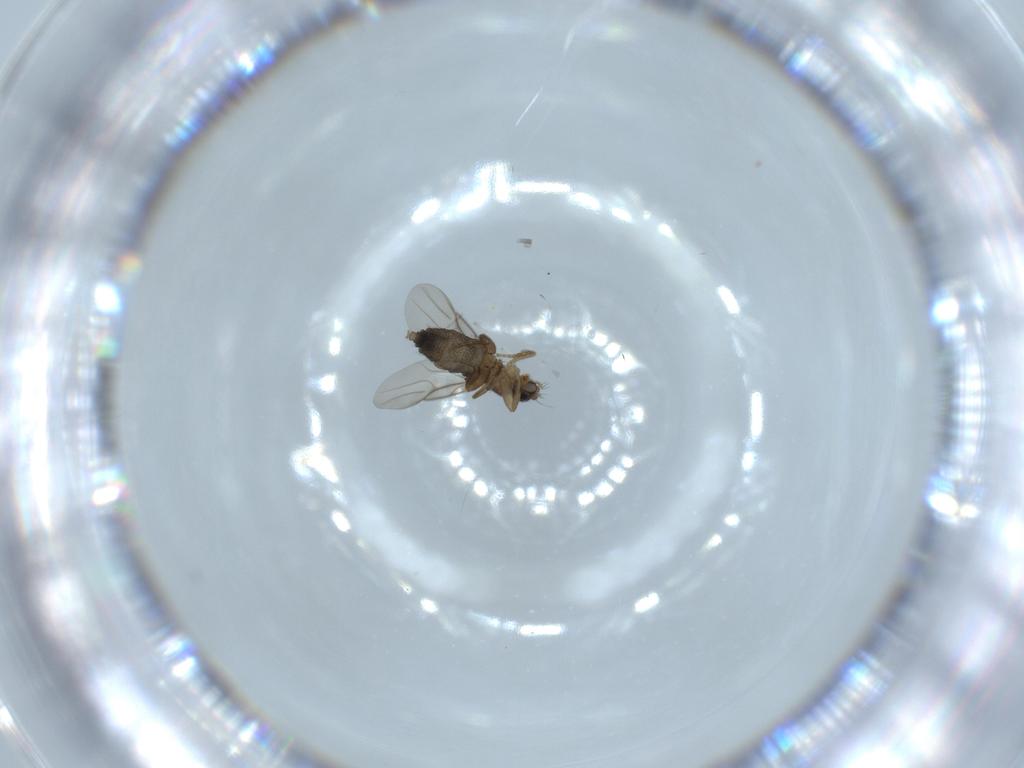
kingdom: Animalia
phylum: Arthropoda
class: Insecta
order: Diptera
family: Phoridae
